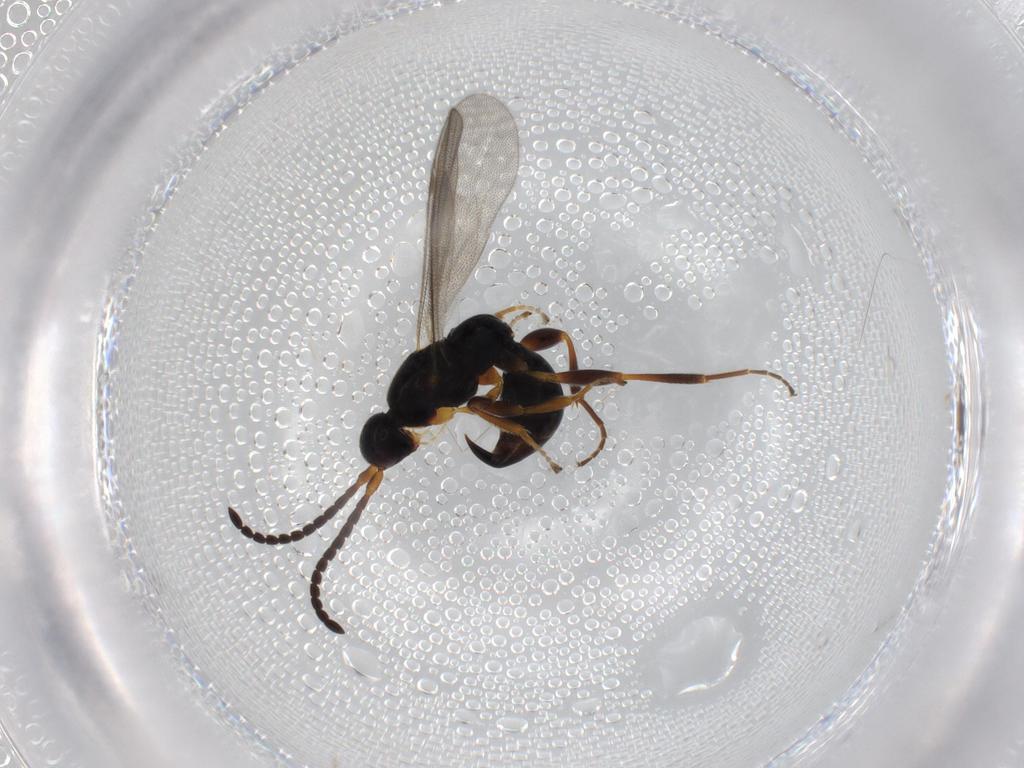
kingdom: Animalia
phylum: Arthropoda
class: Insecta
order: Hymenoptera
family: Proctotrupidae
